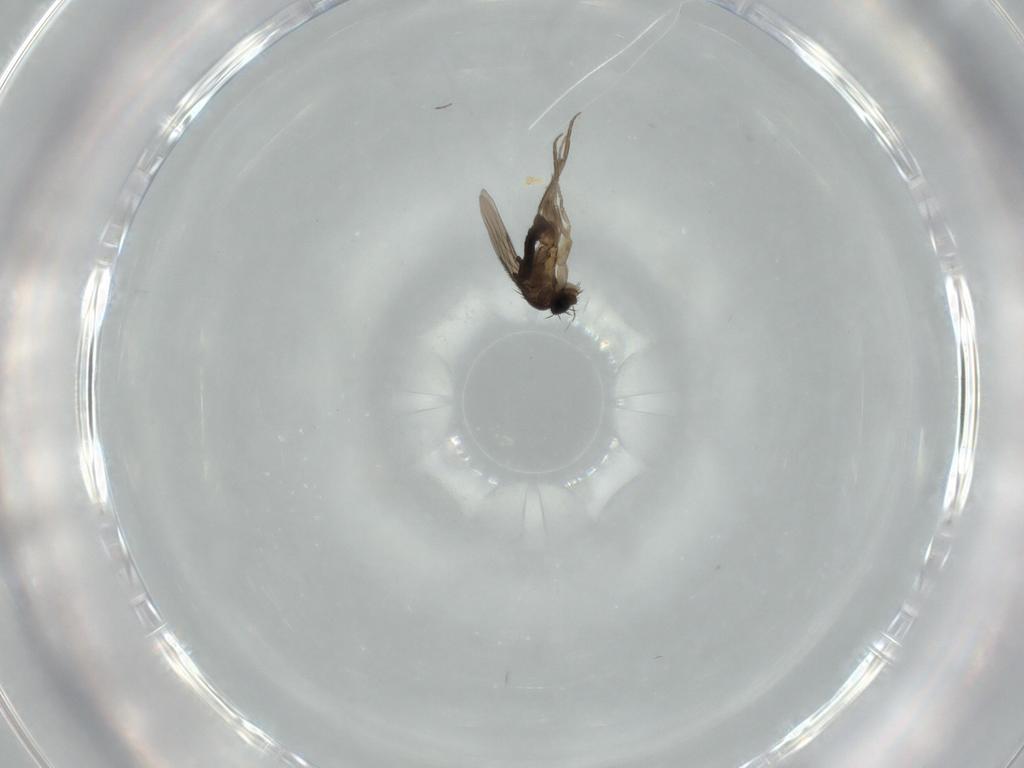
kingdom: Animalia
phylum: Arthropoda
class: Insecta
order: Diptera
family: Phoridae
